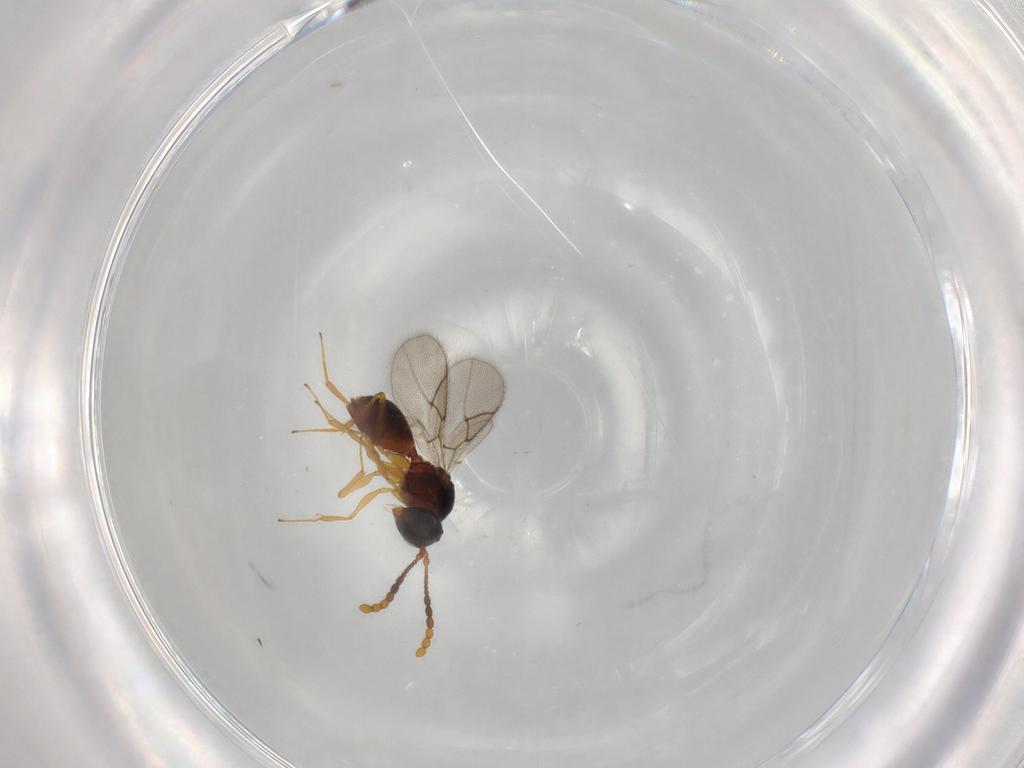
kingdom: Animalia
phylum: Arthropoda
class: Insecta
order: Hymenoptera
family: Figitidae
